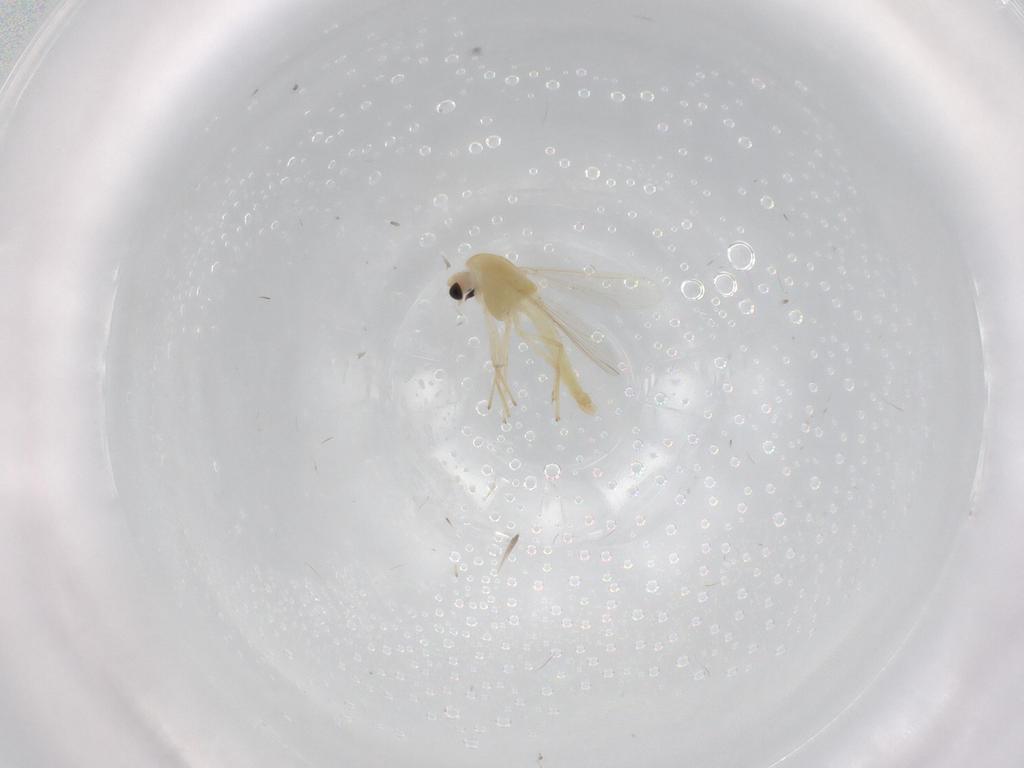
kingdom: Animalia
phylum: Arthropoda
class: Insecta
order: Diptera
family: Chironomidae
